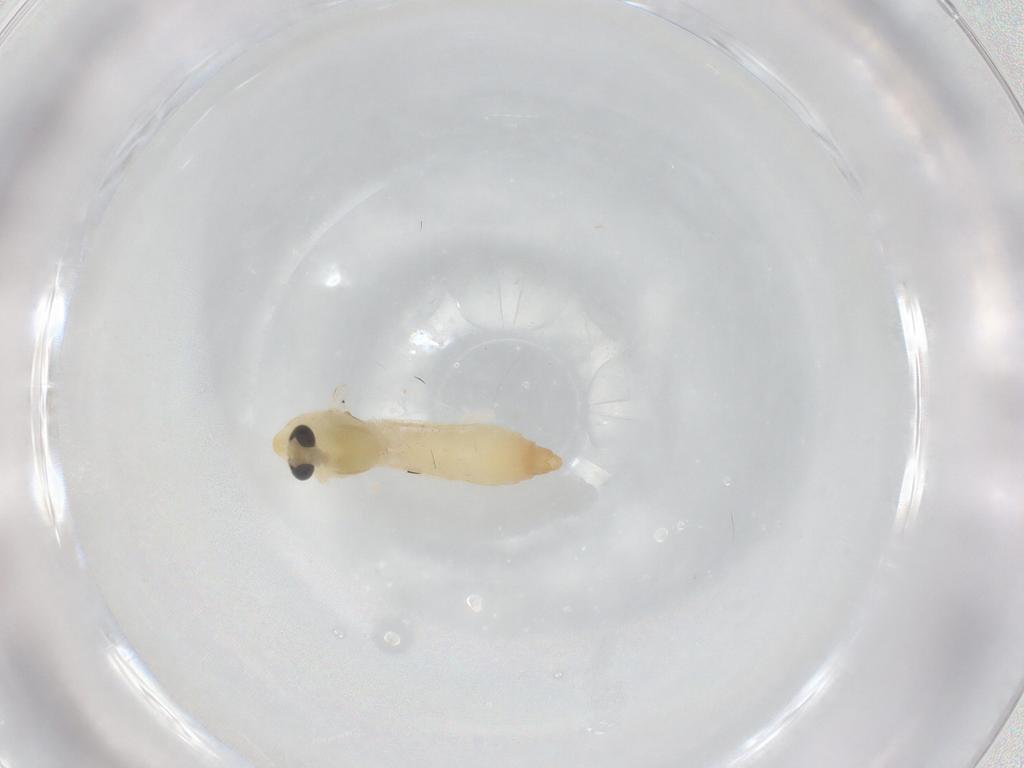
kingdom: Animalia
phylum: Arthropoda
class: Insecta
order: Diptera
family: Chironomidae
